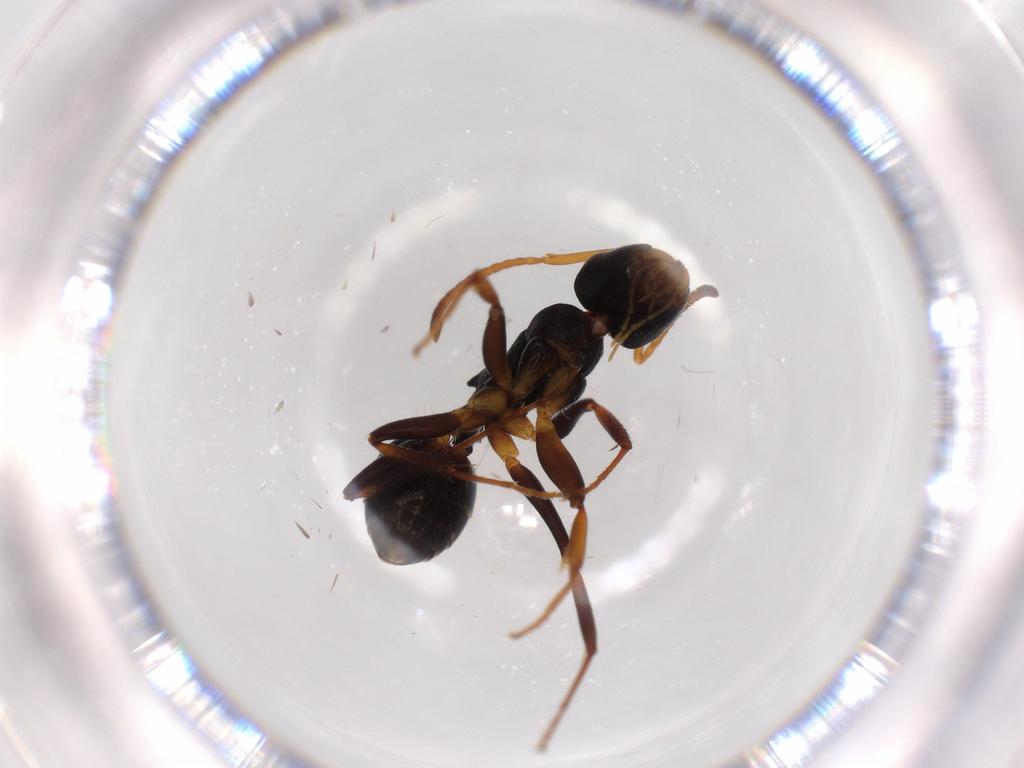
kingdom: Animalia
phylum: Arthropoda
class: Insecta
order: Hymenoptera
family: Formicidae
